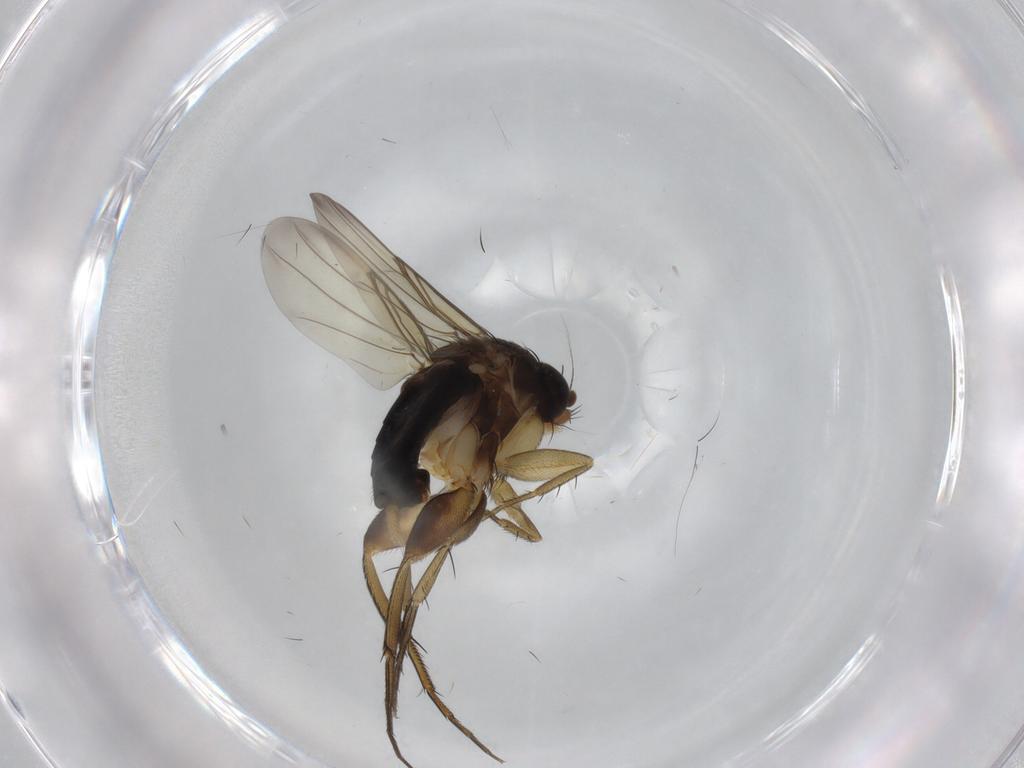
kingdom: Animalia
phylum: Arthropoda
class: Insecta
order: Diptera
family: Phoridae
